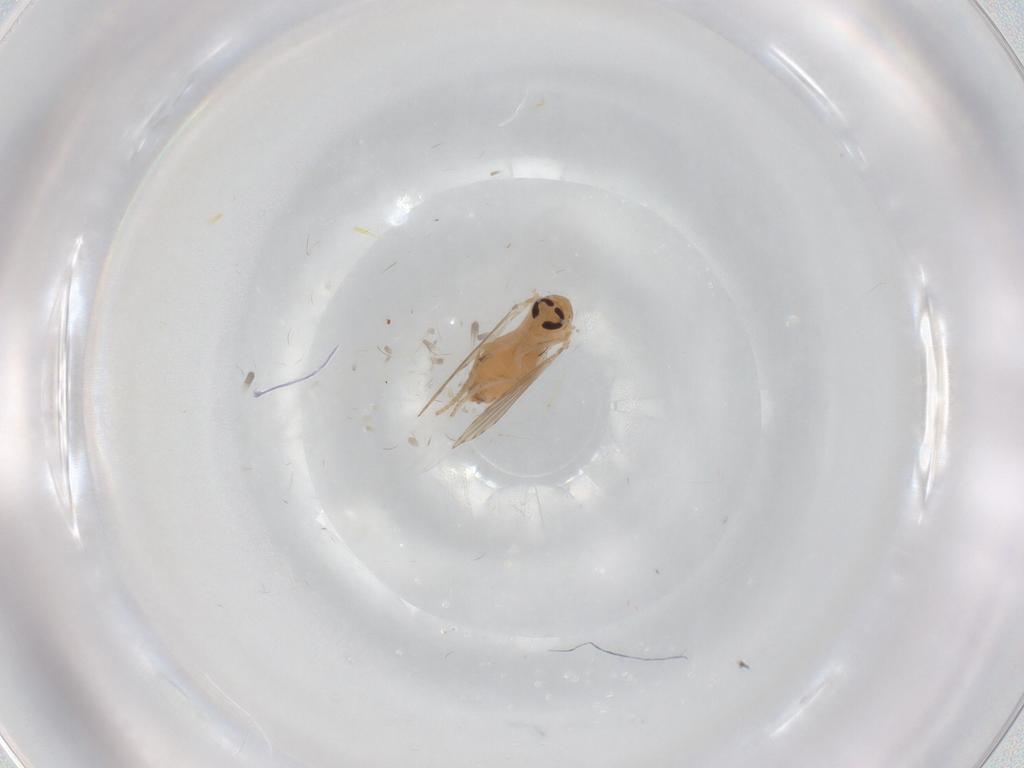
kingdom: Animalia
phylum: Arthropoda
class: Insecta
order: Diptera
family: Psychodidae
